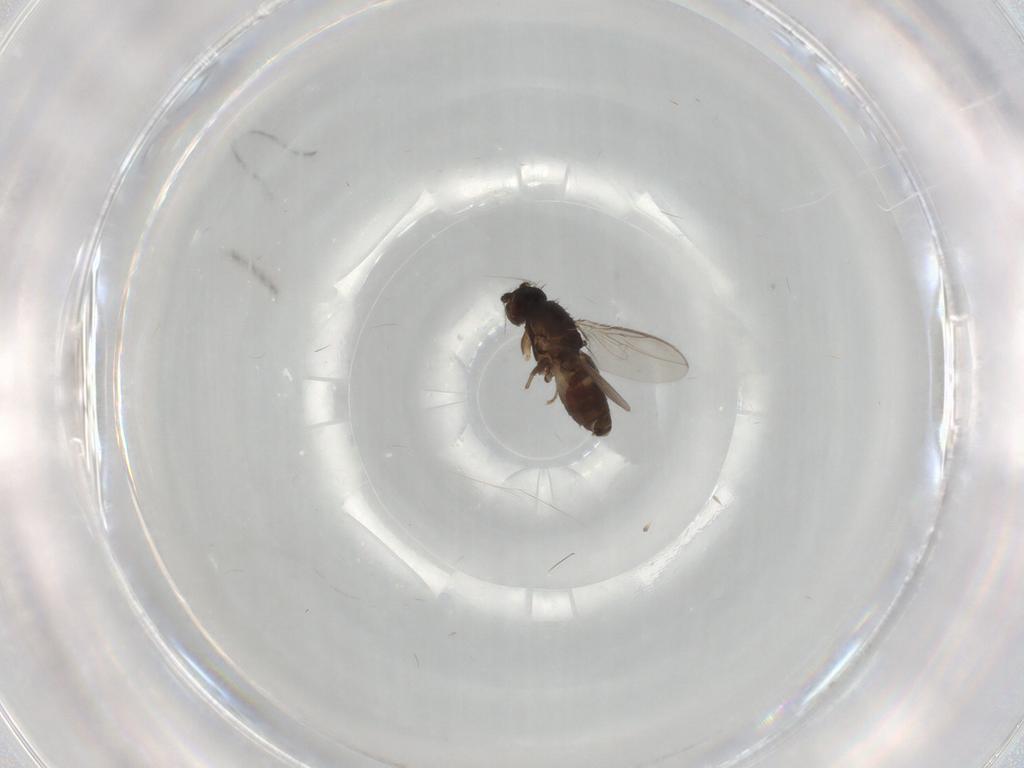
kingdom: Animalia
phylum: Arthropoda
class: Insecta
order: Diptera
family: Sphaeroceridae
